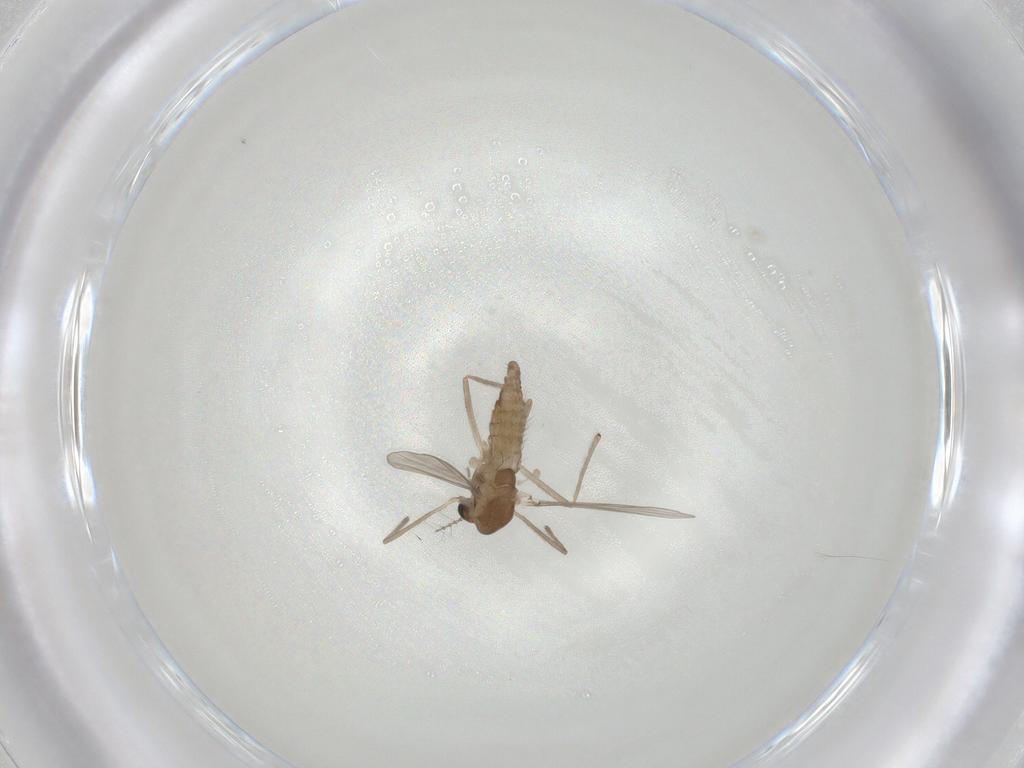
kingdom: Animalia
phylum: Arthropoda
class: Insecta
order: Diptera
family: Chironomidae
